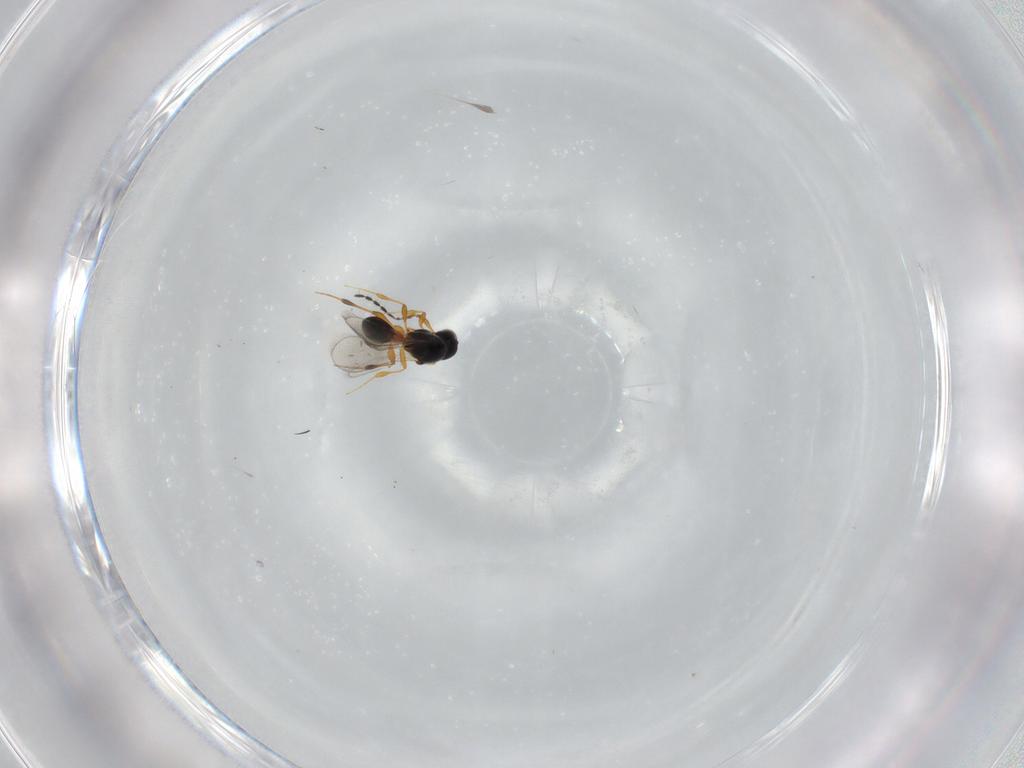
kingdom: Animalia
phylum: Arthropoda
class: Insecta
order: Hymenoptera
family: Platygastridae
